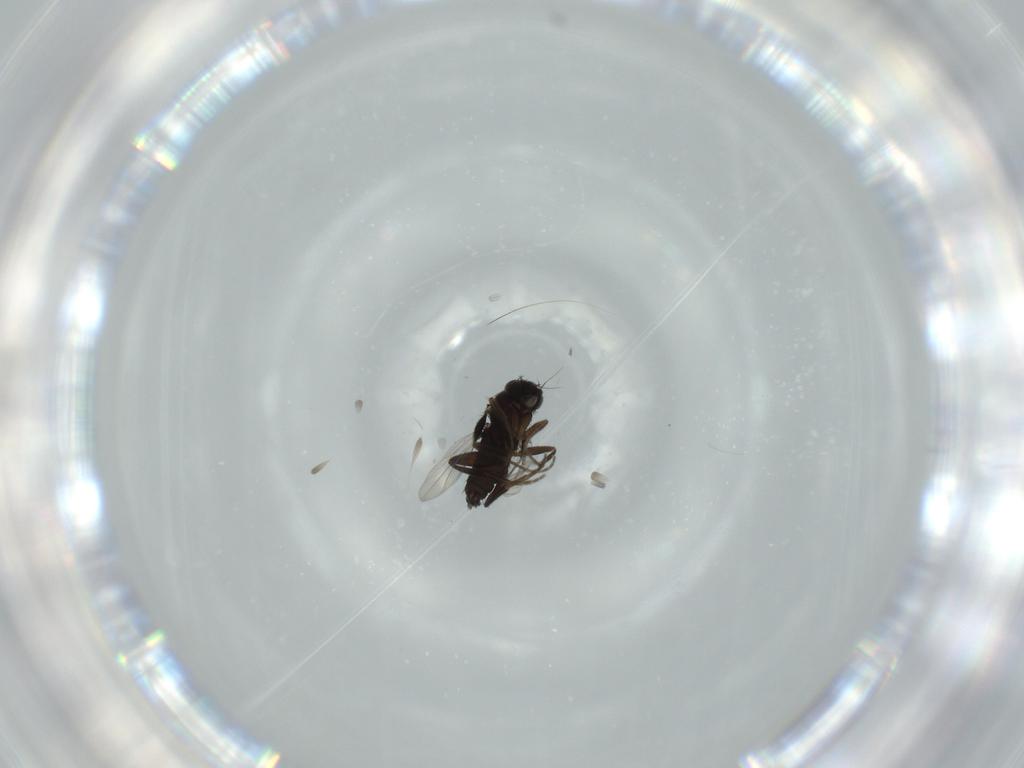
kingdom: Animalia
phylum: Arthropoda
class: Insecta
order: Diptera
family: Phoridae
